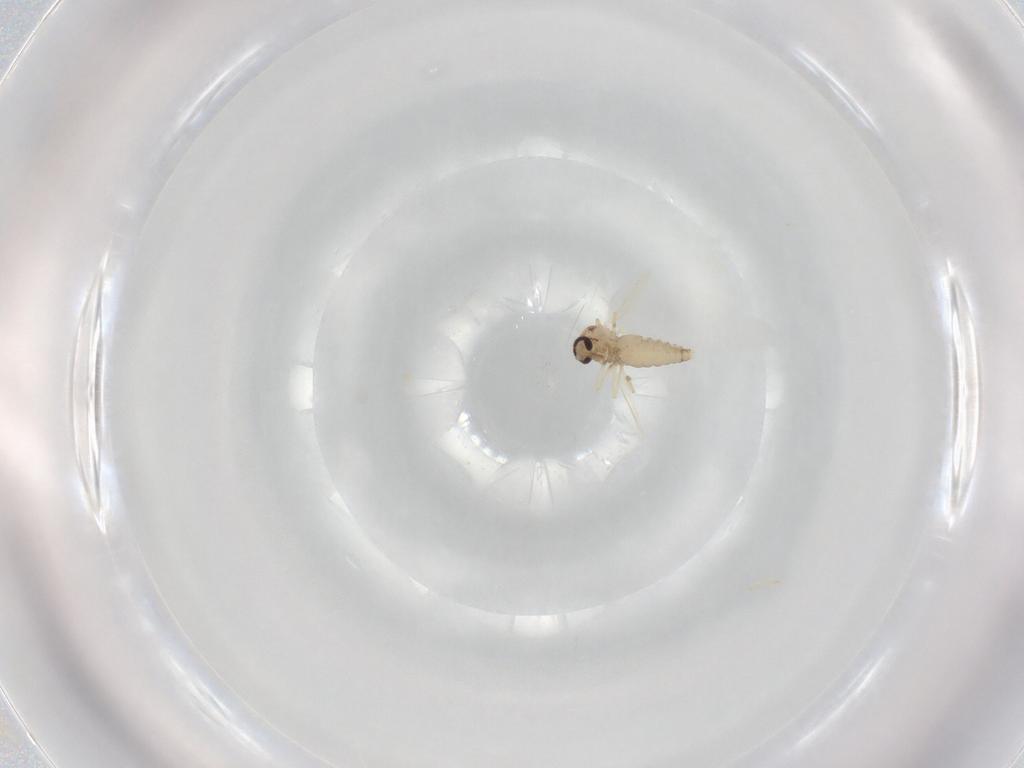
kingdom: Animalia
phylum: Arthropoda
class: Insecta
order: Diptera
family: Ceratopogonidae
